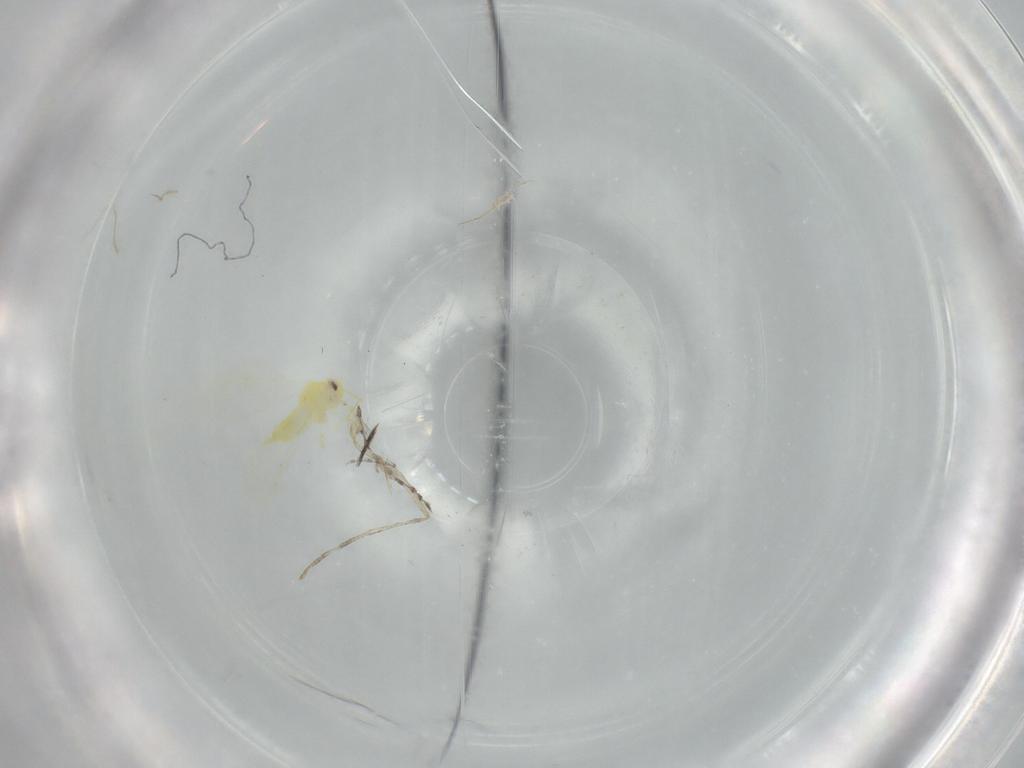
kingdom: Animalia
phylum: Arthropoda
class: Insecta
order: Hemiptera
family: Aleyrodidae
